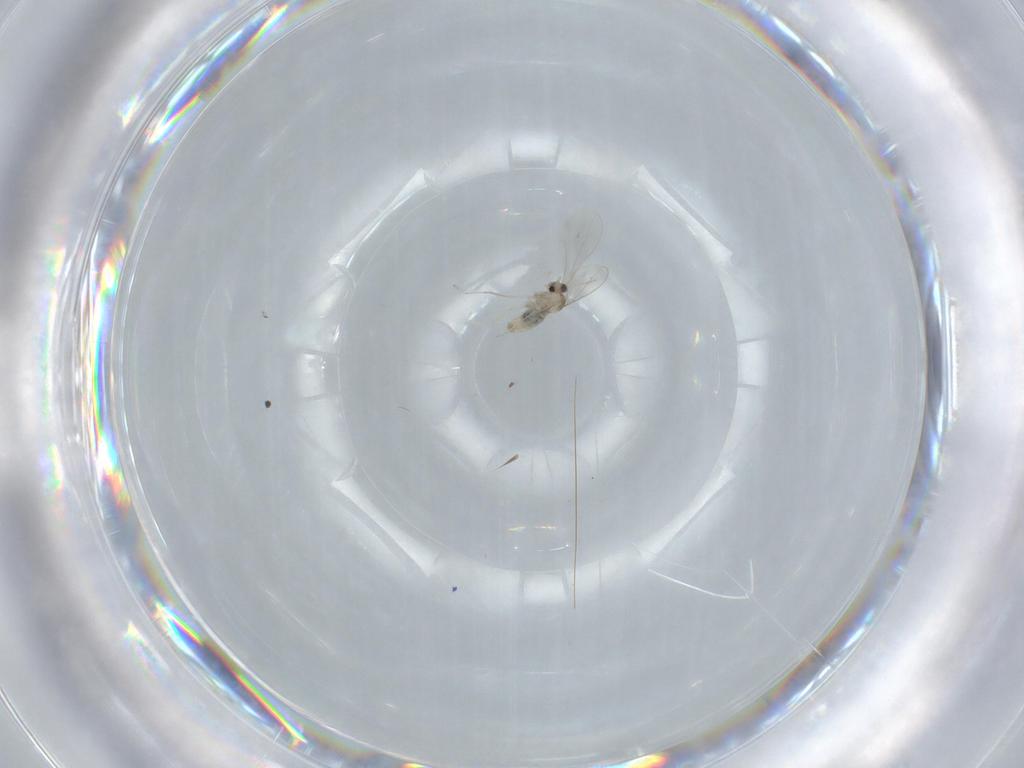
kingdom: Animalia
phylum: Arthropoda
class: Insecta
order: Diptera
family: Cecidomyiidae
